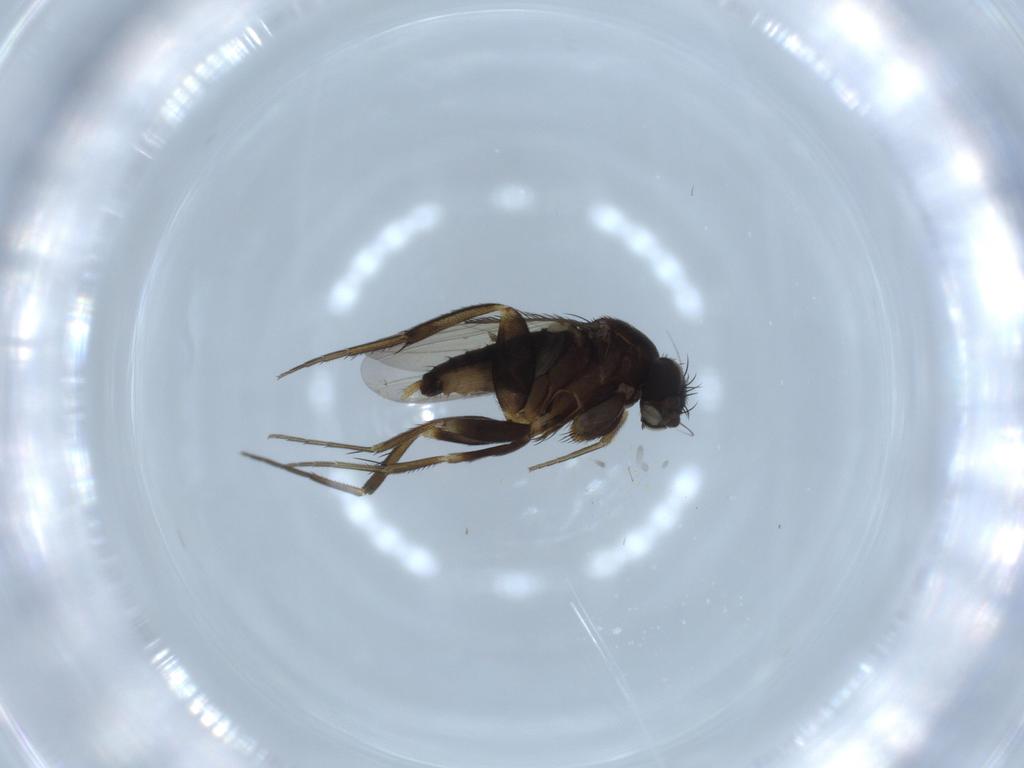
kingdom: Animalia
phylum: Arthropoda
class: Insecta
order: Diptera
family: Phoridae
